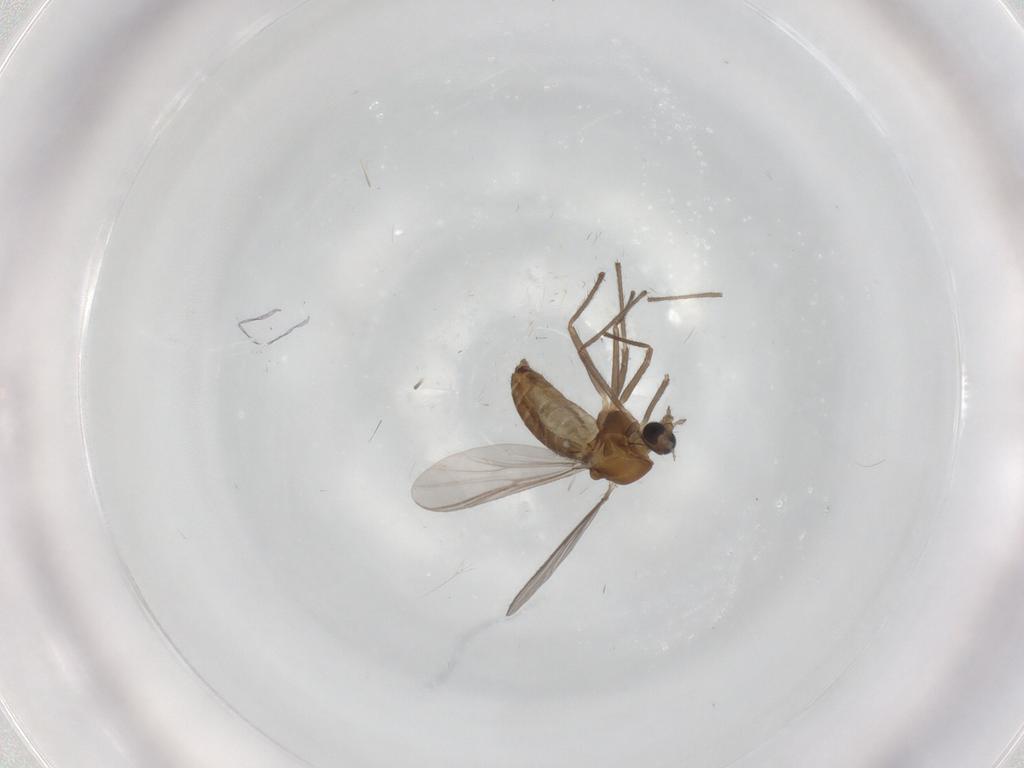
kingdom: Animalia
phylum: Arthropoda
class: Insecta
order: Diptera
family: Chironomidae
